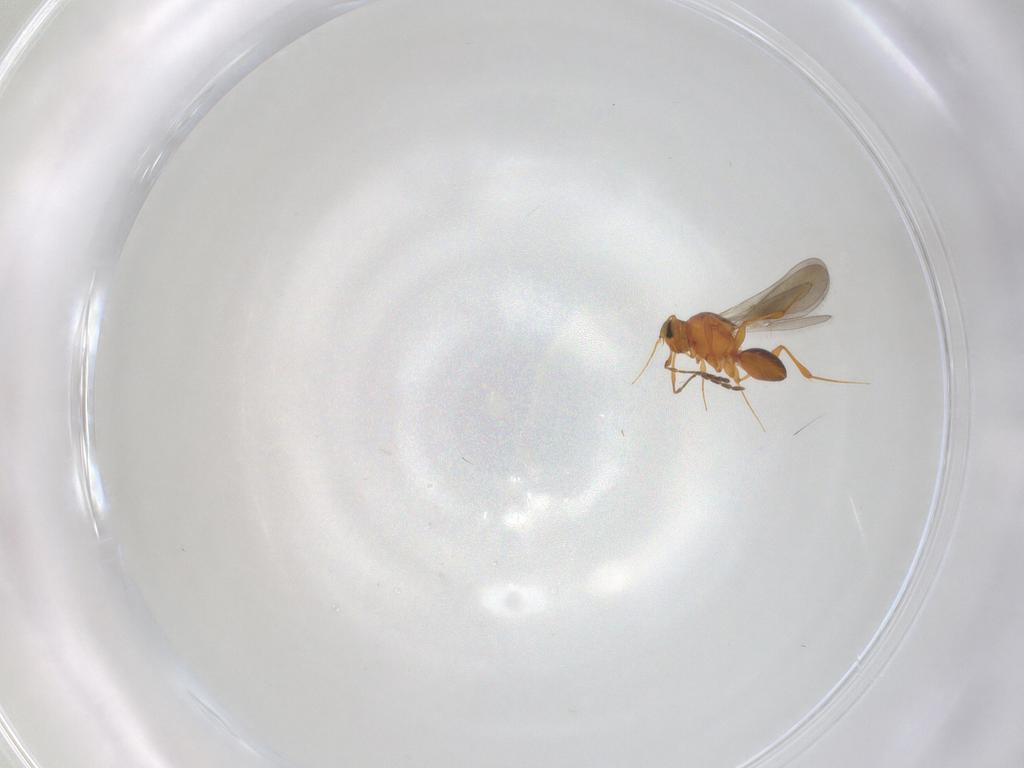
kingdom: Animalia
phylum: Arthropoda
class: Insecta
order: Hymenoptera
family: Platygastridae
